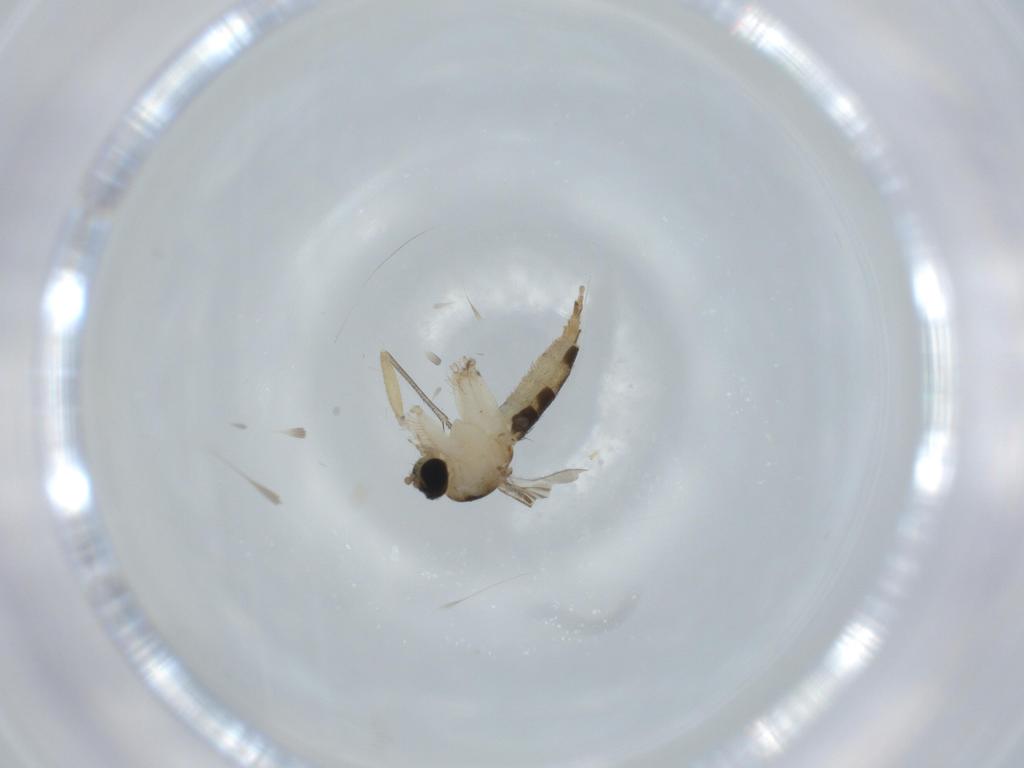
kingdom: Animalia
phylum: Arthropoda
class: Insecta
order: Diptera
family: Sciaridae
